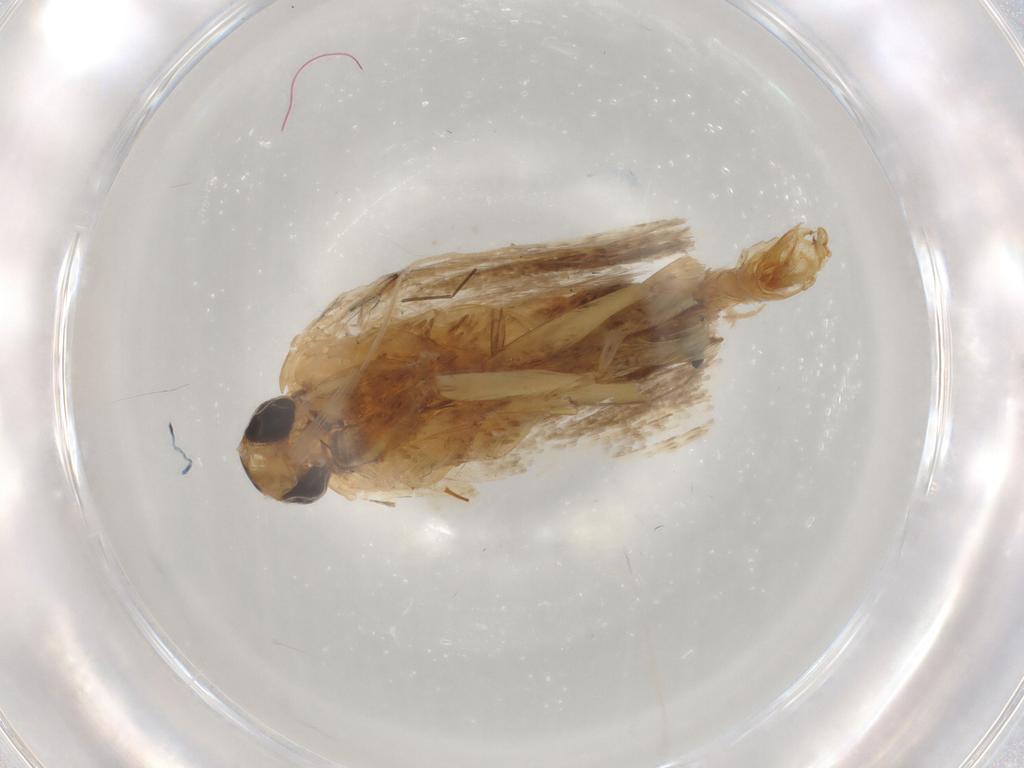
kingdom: Animalia
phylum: Arthropoda
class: Insecta
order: Lepidoptera
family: Lecithoceridae
